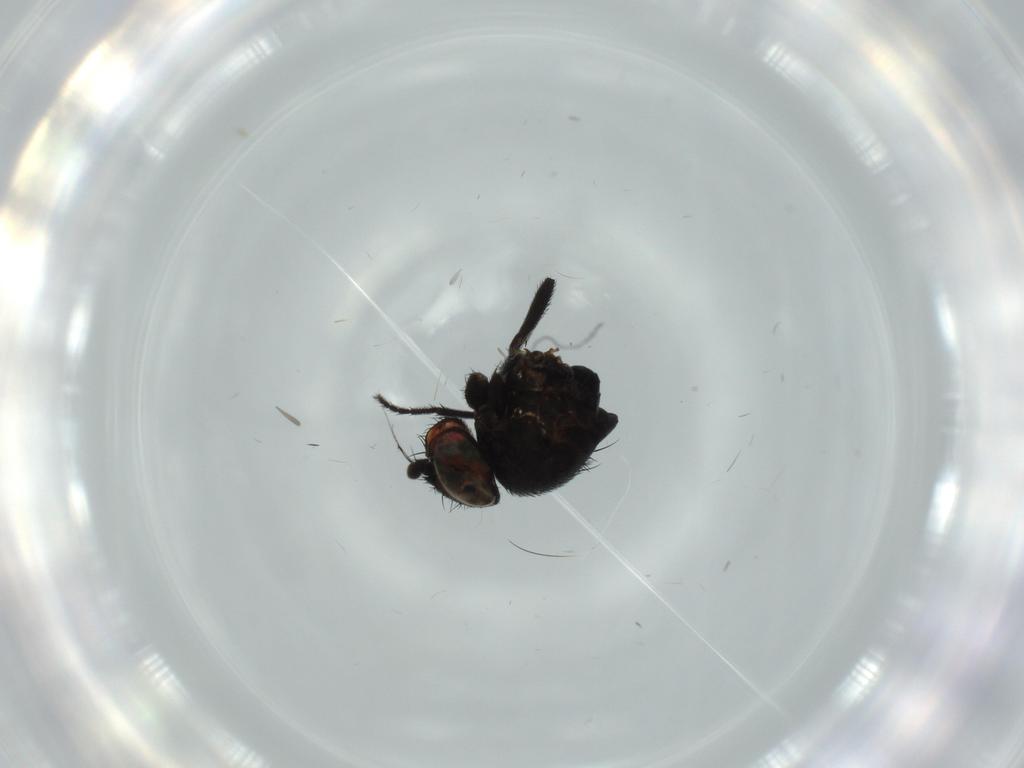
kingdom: Animalia
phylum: Arthropoda
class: Insecta
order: Diptera
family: Milichiidae
